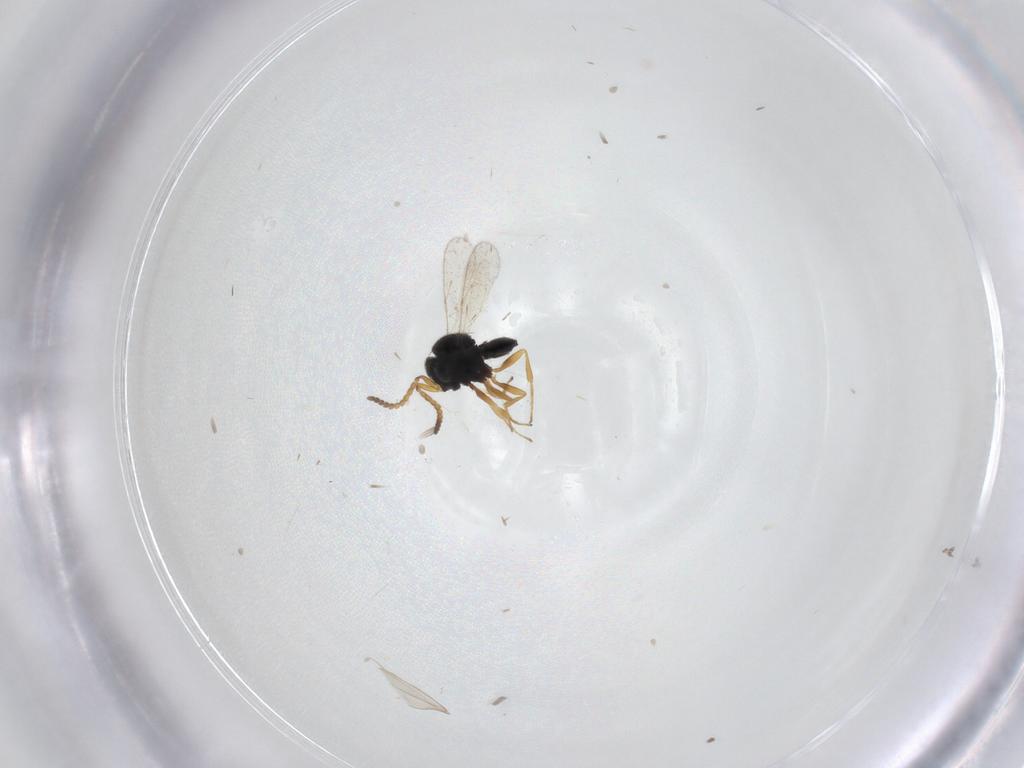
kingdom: Animalia
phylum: Arthropoda
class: Insecta
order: Hymenoptera
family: Scelionidae
